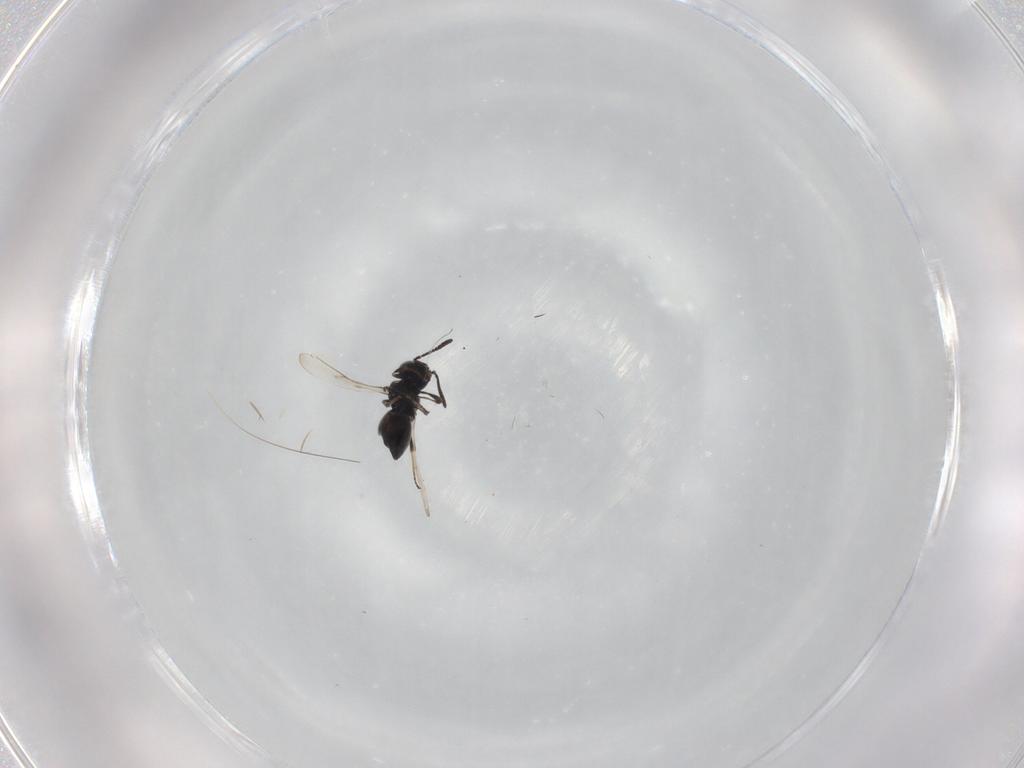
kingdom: Animalia
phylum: Arthropoda
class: Insecta
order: Hymenoptera
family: Scelionidae
